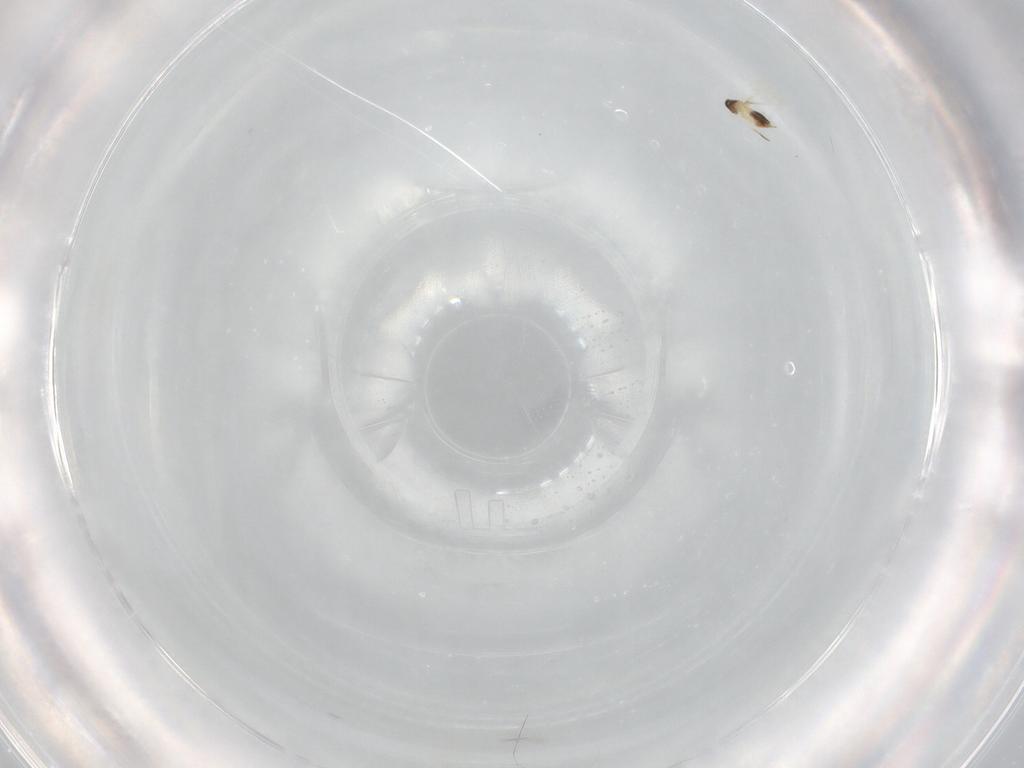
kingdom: Animalia
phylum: Arthropoda
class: Insecta
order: Hymenoptera
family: Mymaridae
